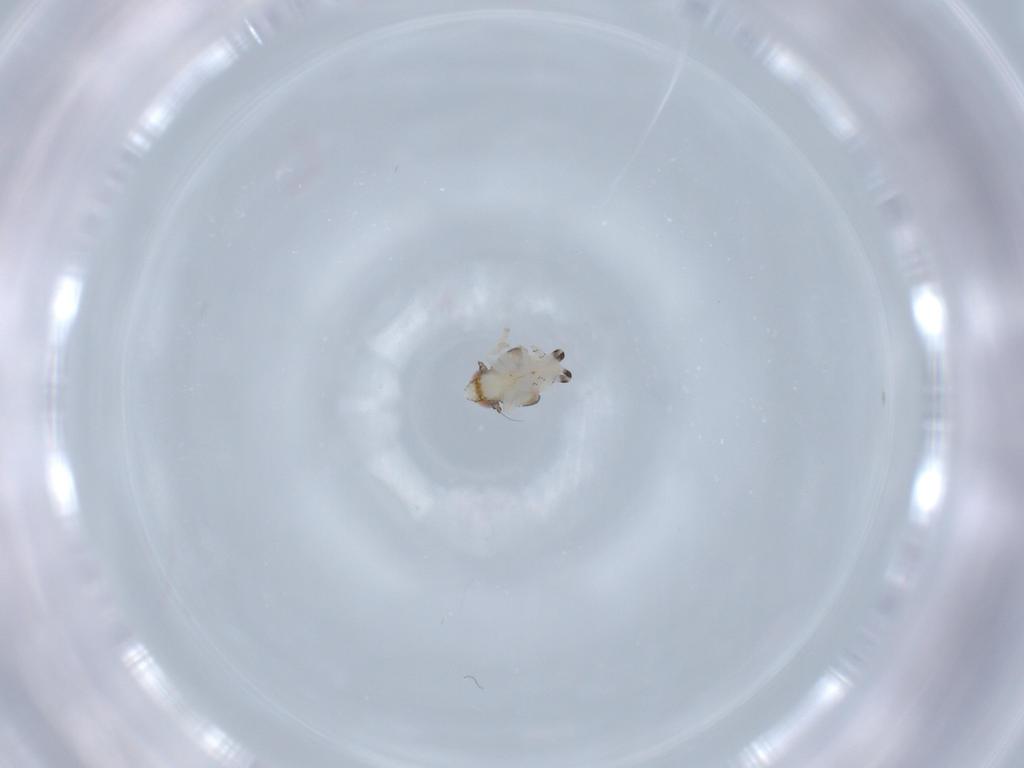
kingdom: Animalia
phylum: Arthropoda
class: Insecta
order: Hemiptera
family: Acanaloniidae
